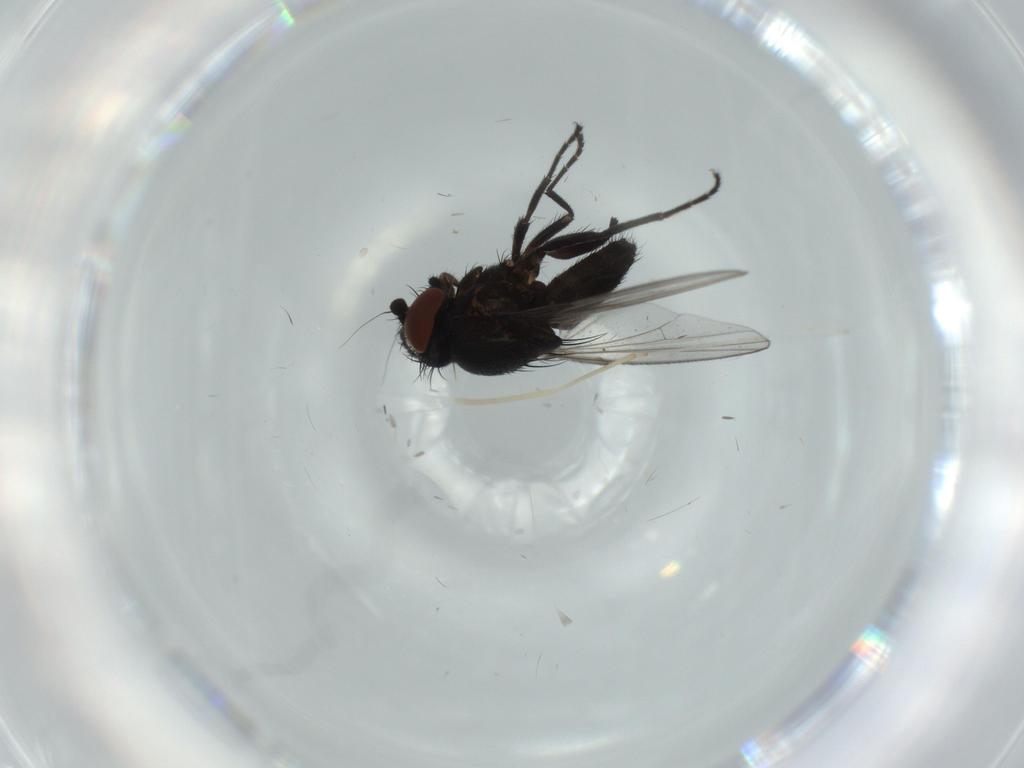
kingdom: Animalia
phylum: Arthropoda
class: Insecta
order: Diptera
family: Milichiidae
